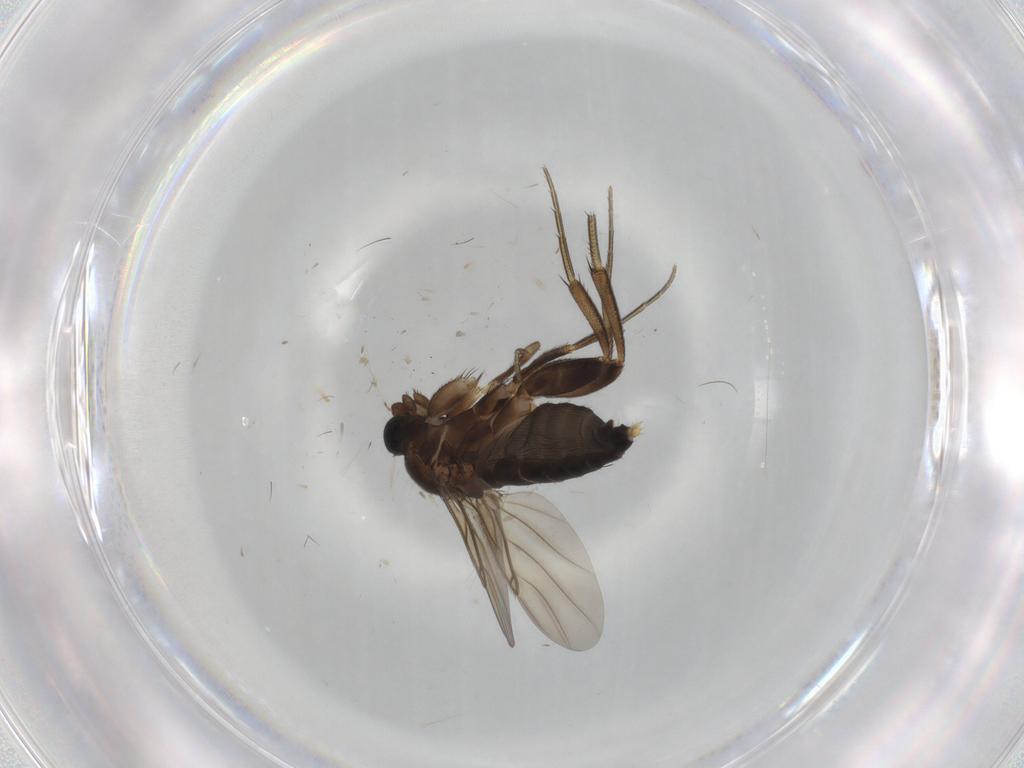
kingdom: Animalia
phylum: Arthropoda
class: Insecta
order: Diptera
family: Phoridae
